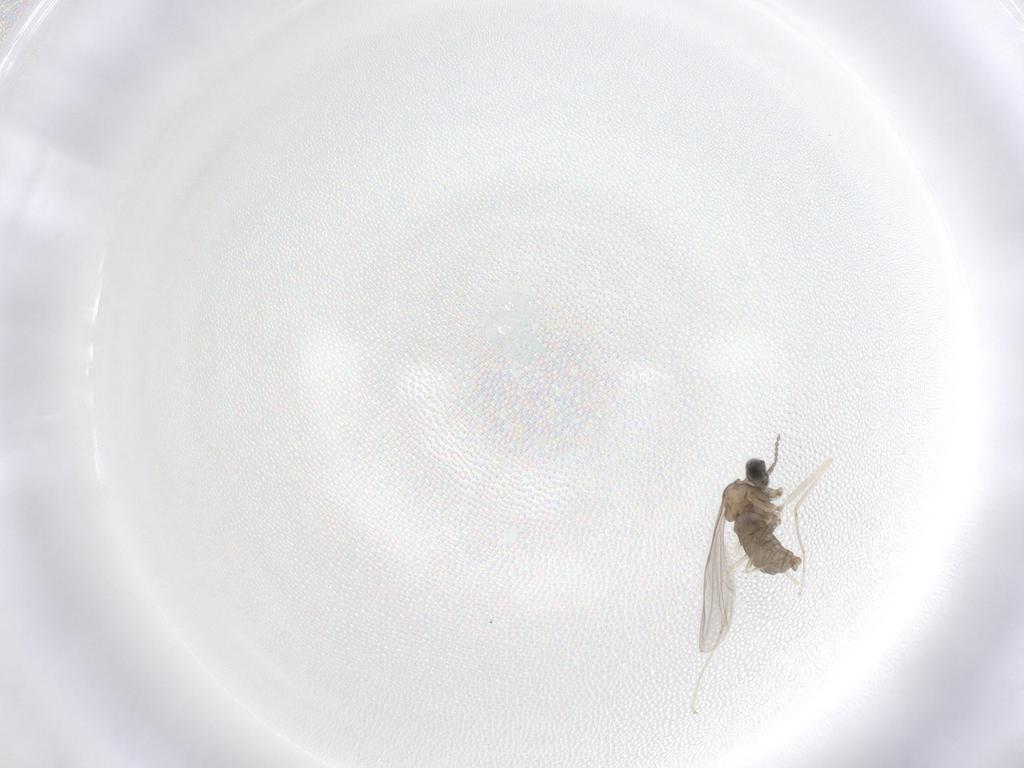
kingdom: Animalia
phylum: Arthropoda
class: Insecta
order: Diptera
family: Cecidomyiidae
